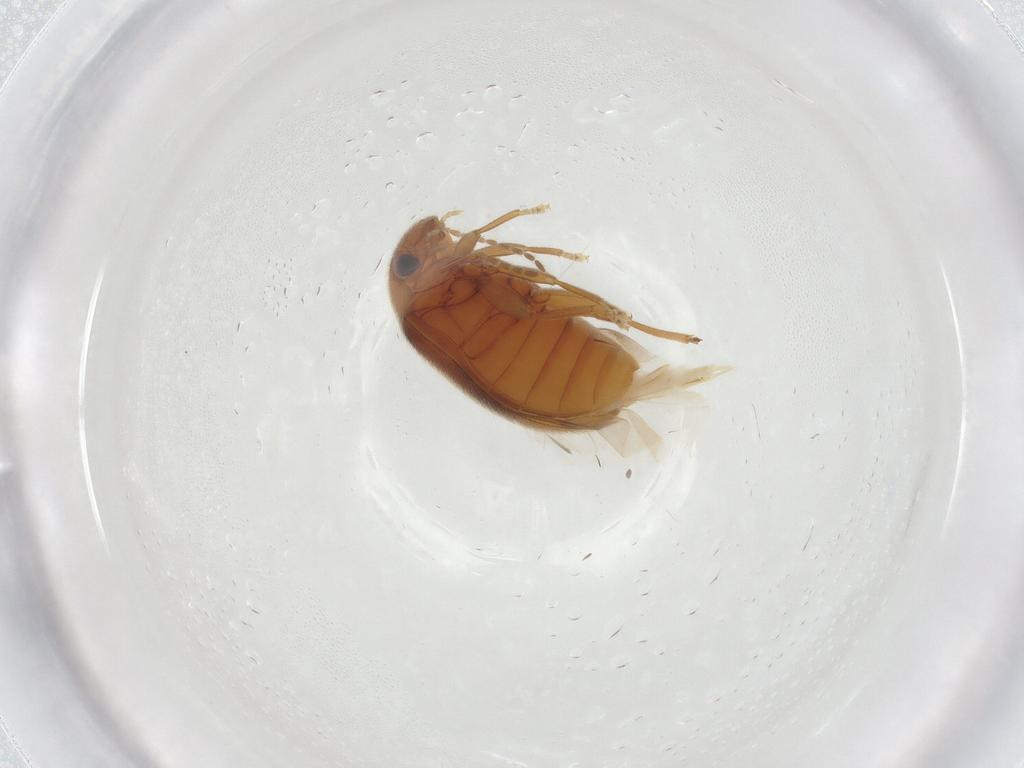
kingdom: Animalia
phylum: Arthropoda
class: Insecta
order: Coleoptera
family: Scirtidae
